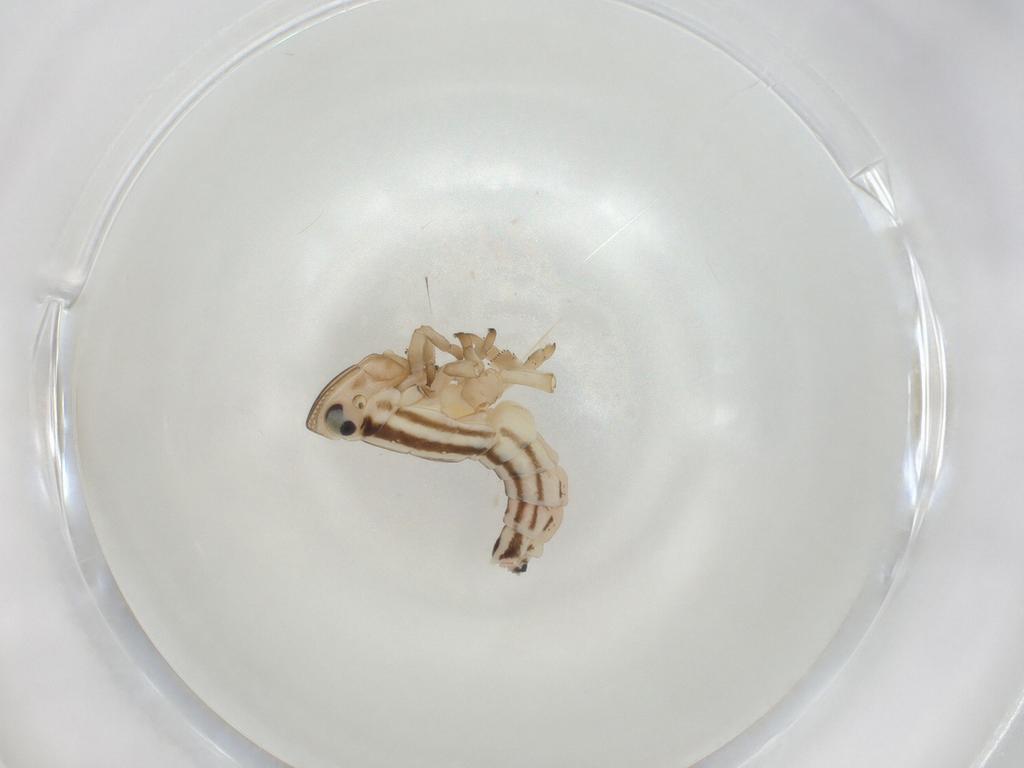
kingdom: Animalia
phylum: Arthropoda
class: Insecta
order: Hemiptera
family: Fulgoroidea_incertae_sedis
